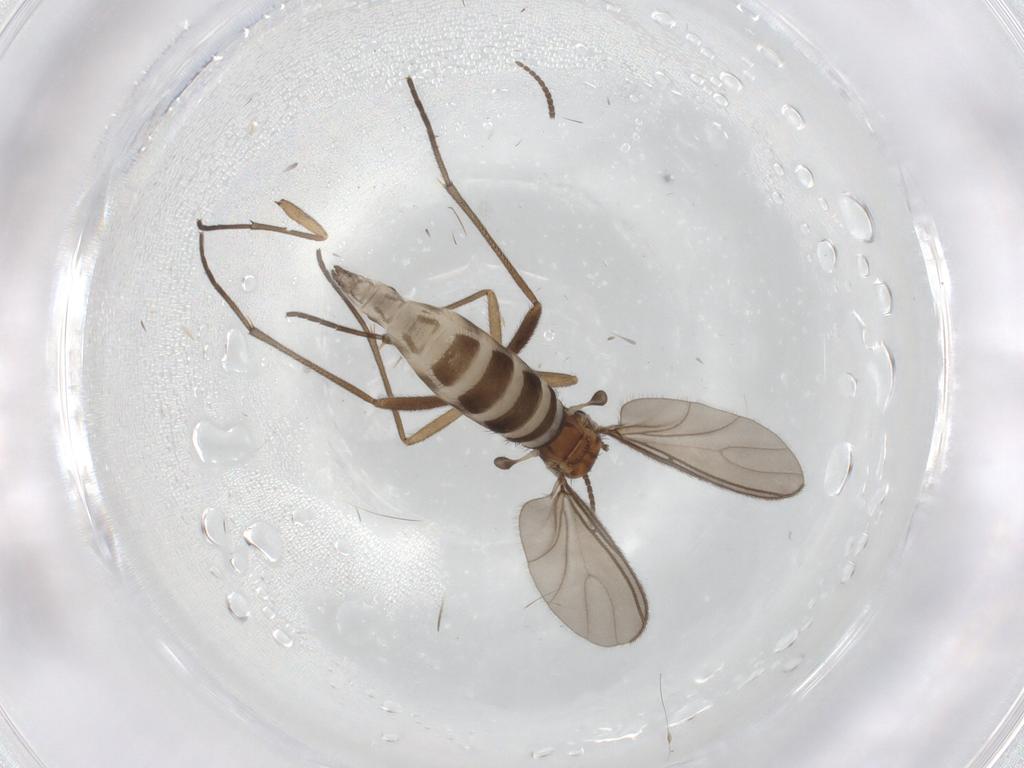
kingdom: Animalia
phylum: Arthropoda
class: Insecta
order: Diptera
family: Sciaridae
